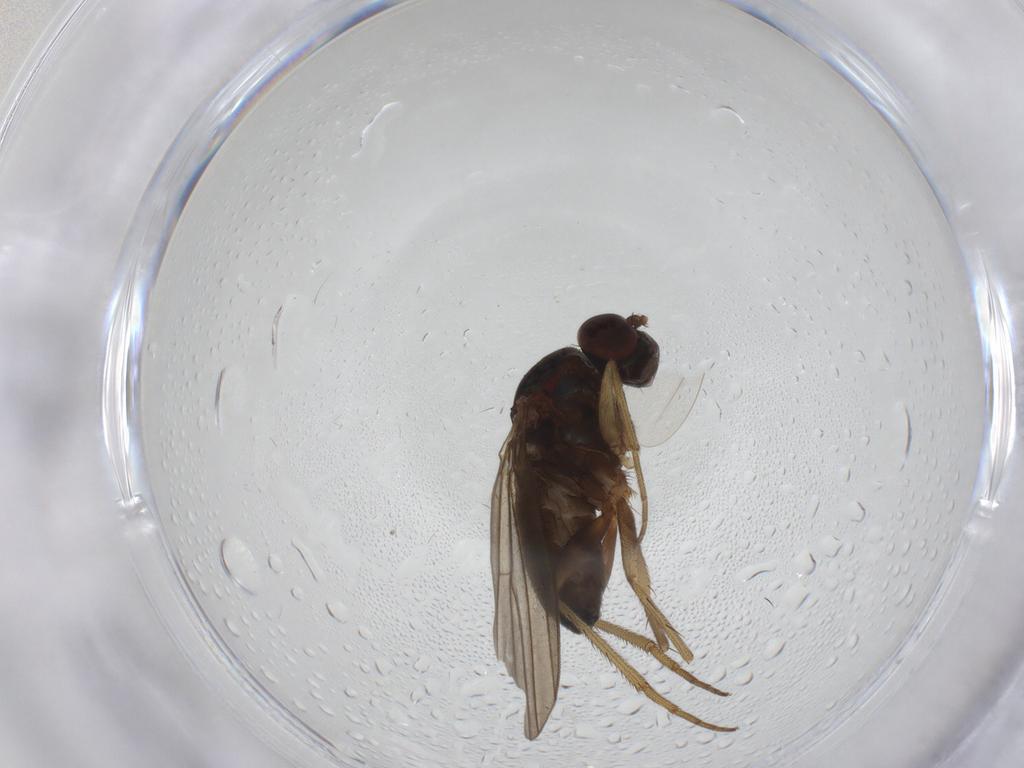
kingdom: Animalia
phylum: Arthropoda
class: Insecta
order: Diptera
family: Dolichopodidae
